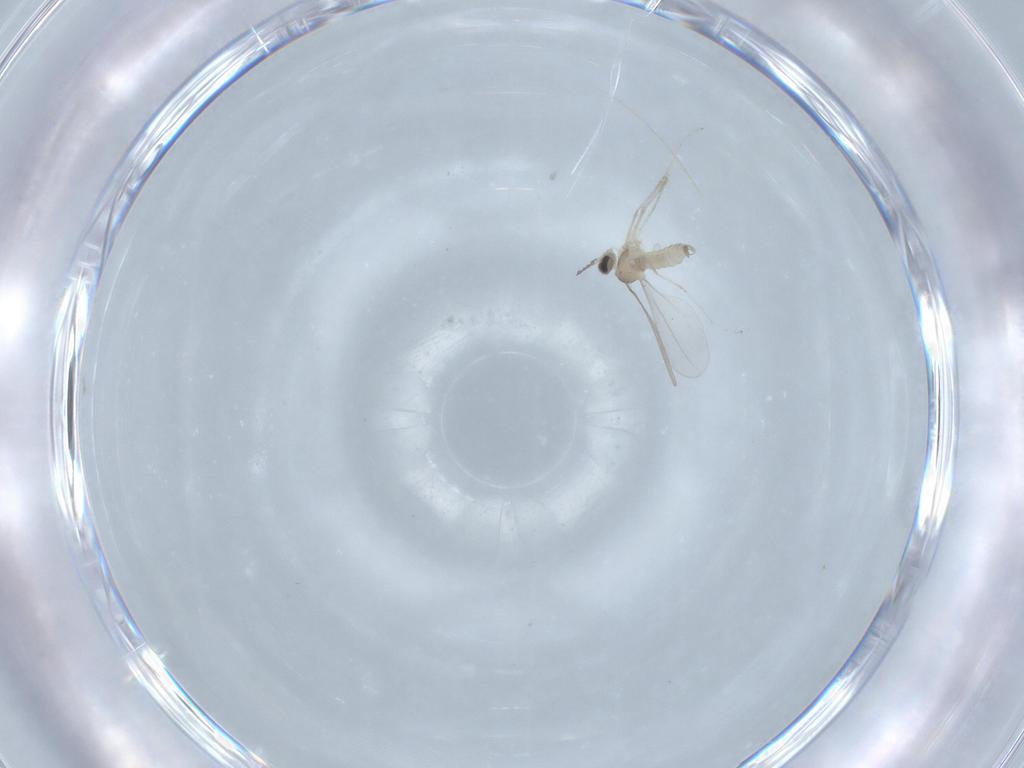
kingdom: Animalia
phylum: Arthropoda
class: Insecta
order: Diptera
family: Cecidomyiidae
